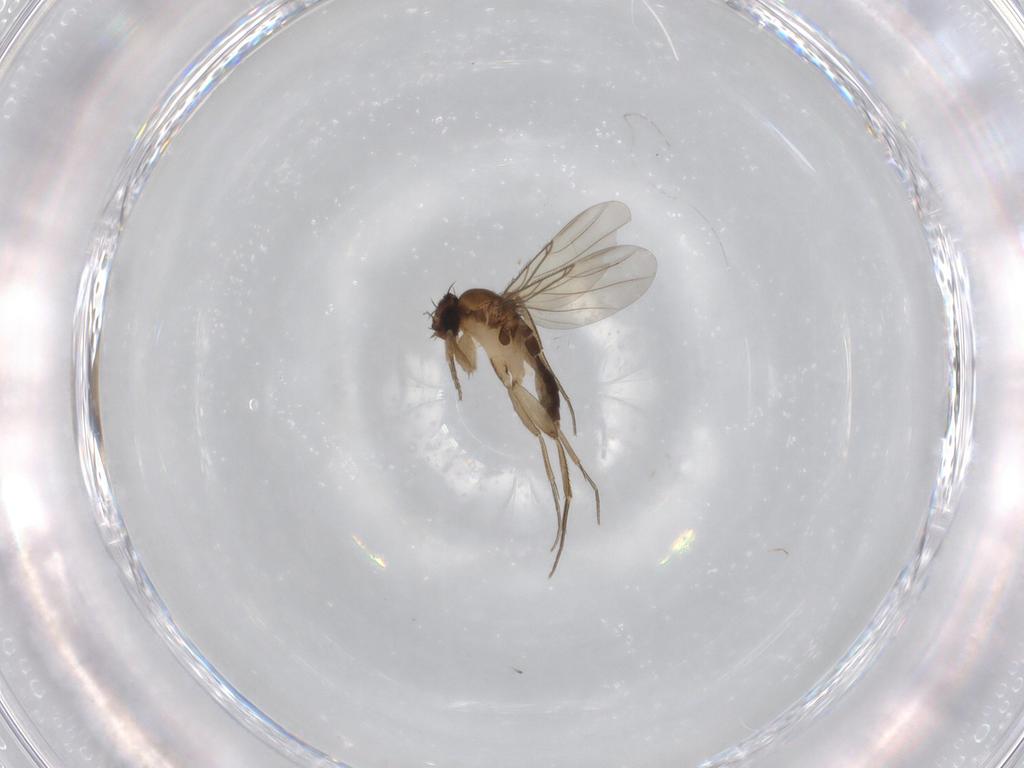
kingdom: Animalia
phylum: Arthropoda
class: Insecta
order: Diptera
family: Phoridae
